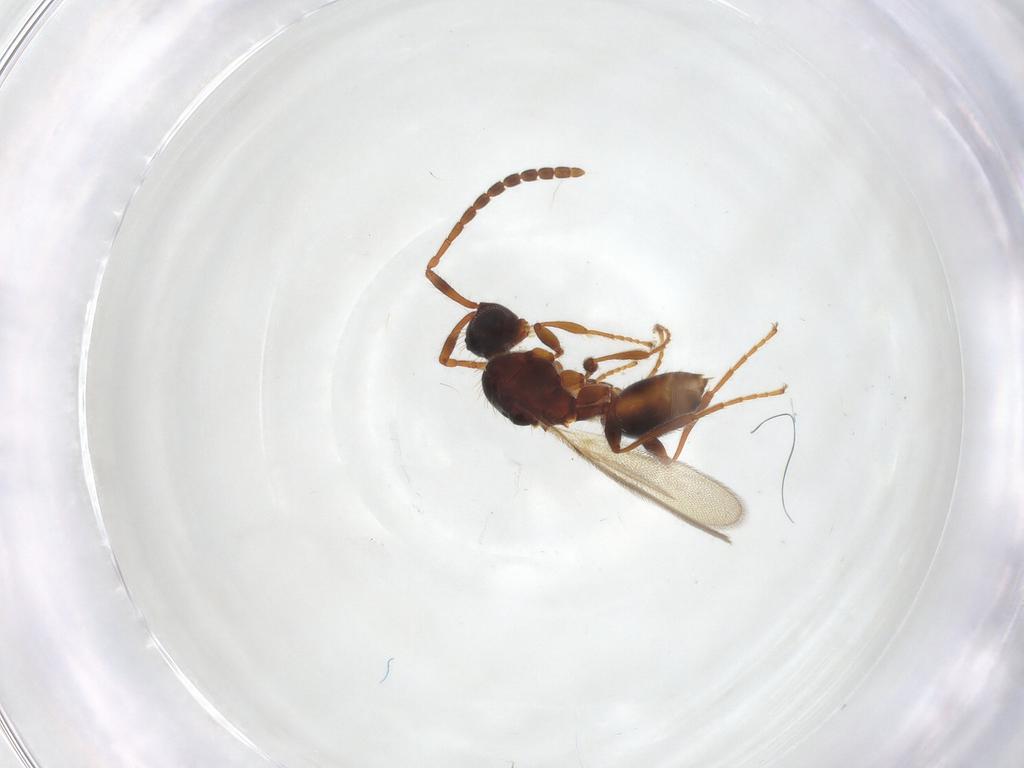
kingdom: Animalia
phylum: Arthropoda
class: Insecta
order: Hymenoptera
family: Diapriidae
